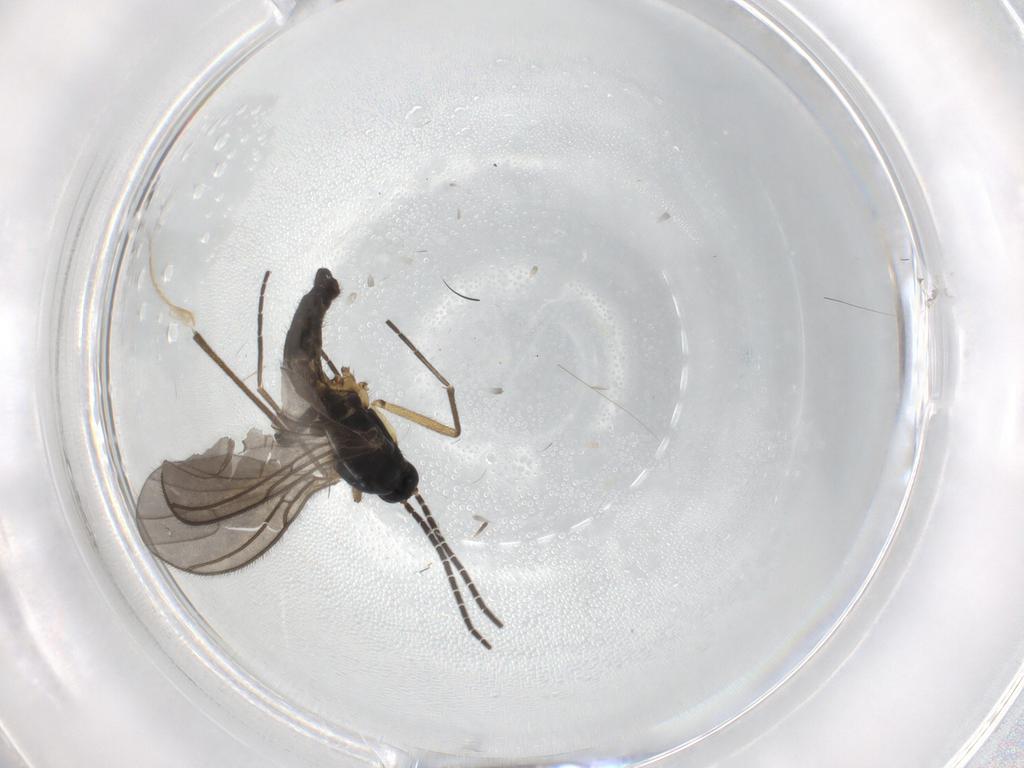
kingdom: Animalia
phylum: Arthropoda
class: Insecta
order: Diptera
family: Sciaridae
